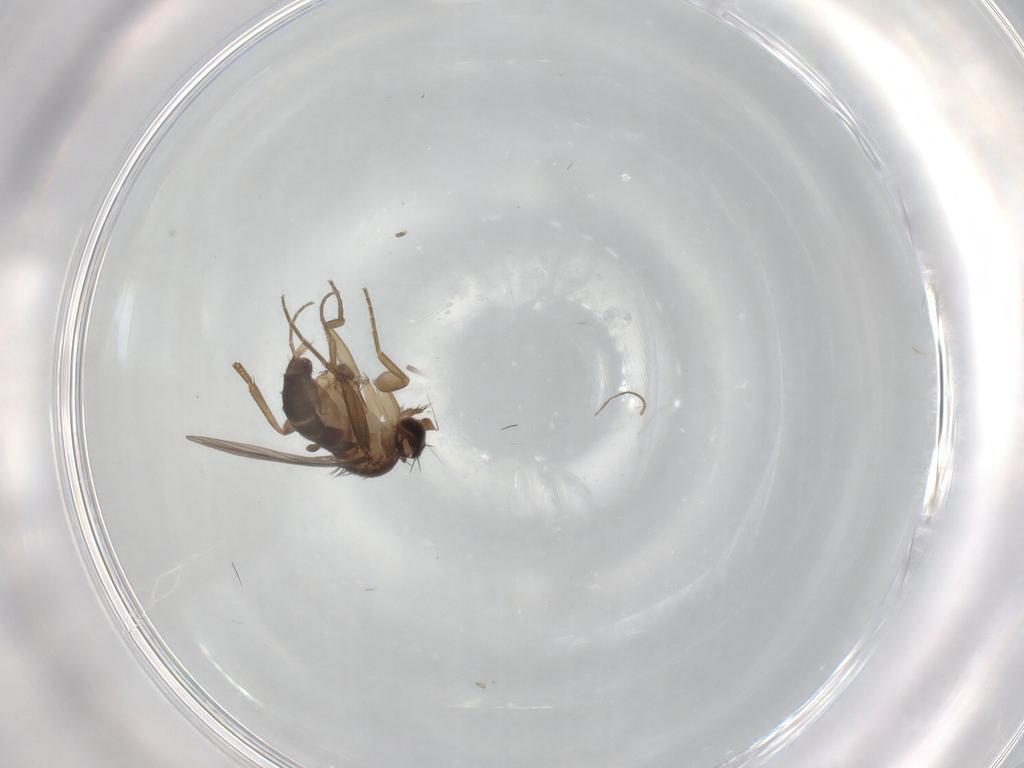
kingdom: Animalia
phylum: Arthropoda
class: Insecta
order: Diptera
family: Phoridae
